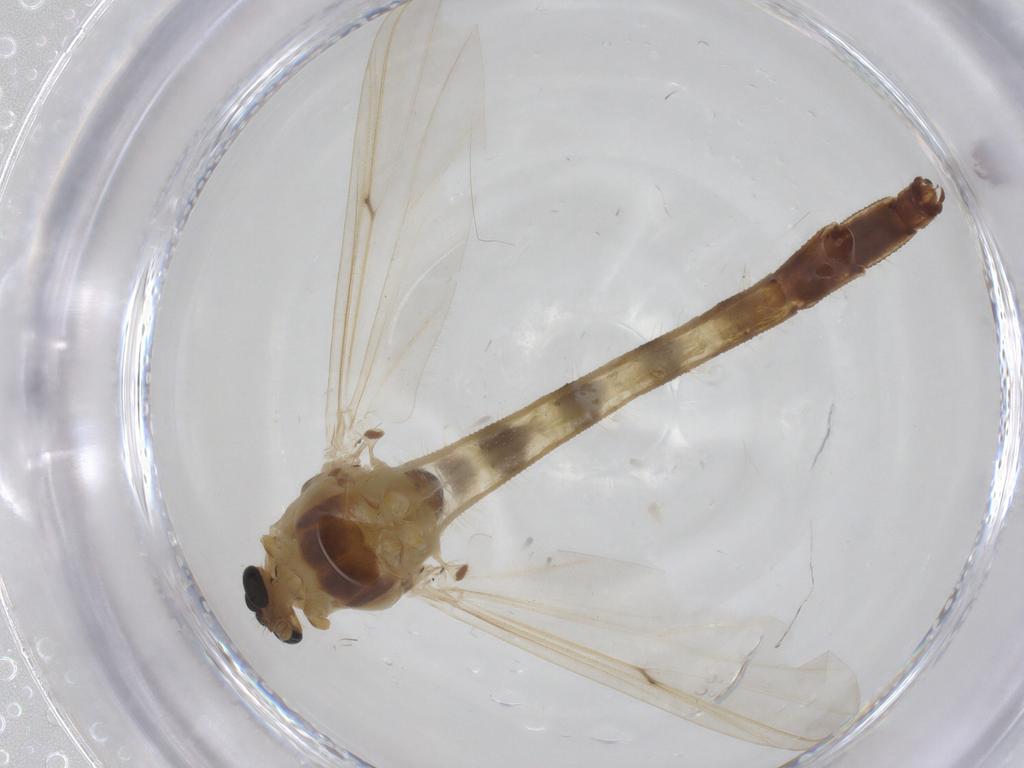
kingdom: Animalia
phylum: Arthropoda
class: Insecta
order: Diptera
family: Chironomidae
